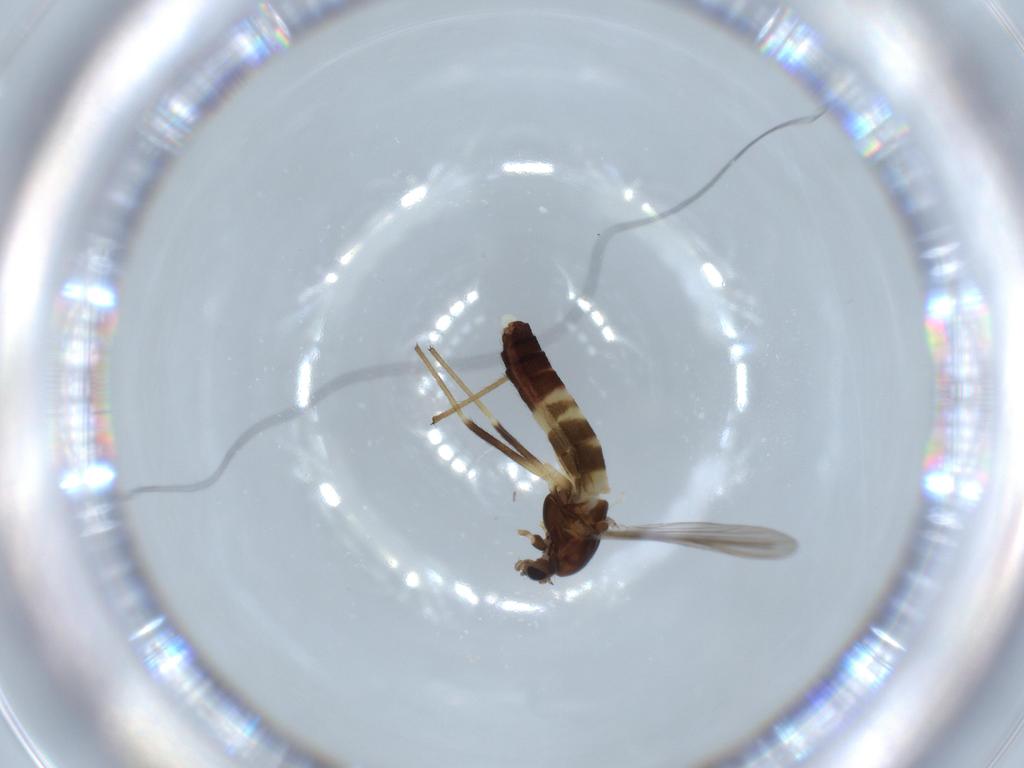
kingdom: Animalia
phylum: Arthropoda
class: Insecta
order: Diptera
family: Chironomidae
